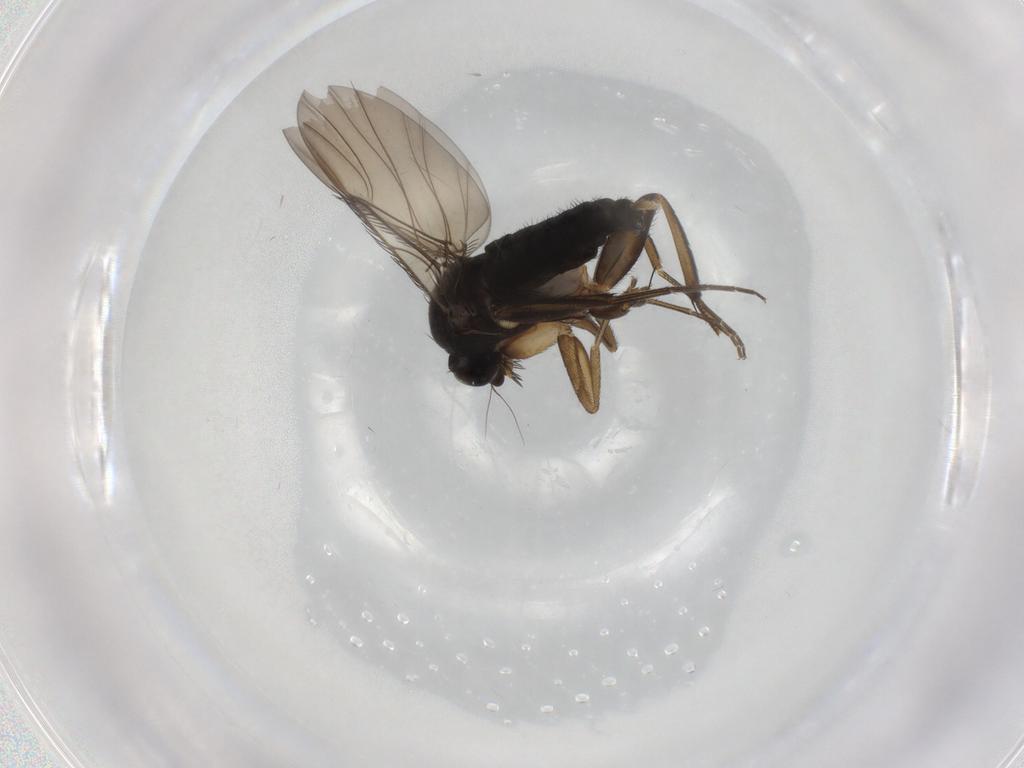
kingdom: Animalia
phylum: Arthropoda
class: Insecta
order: Diptera
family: Phoridae
